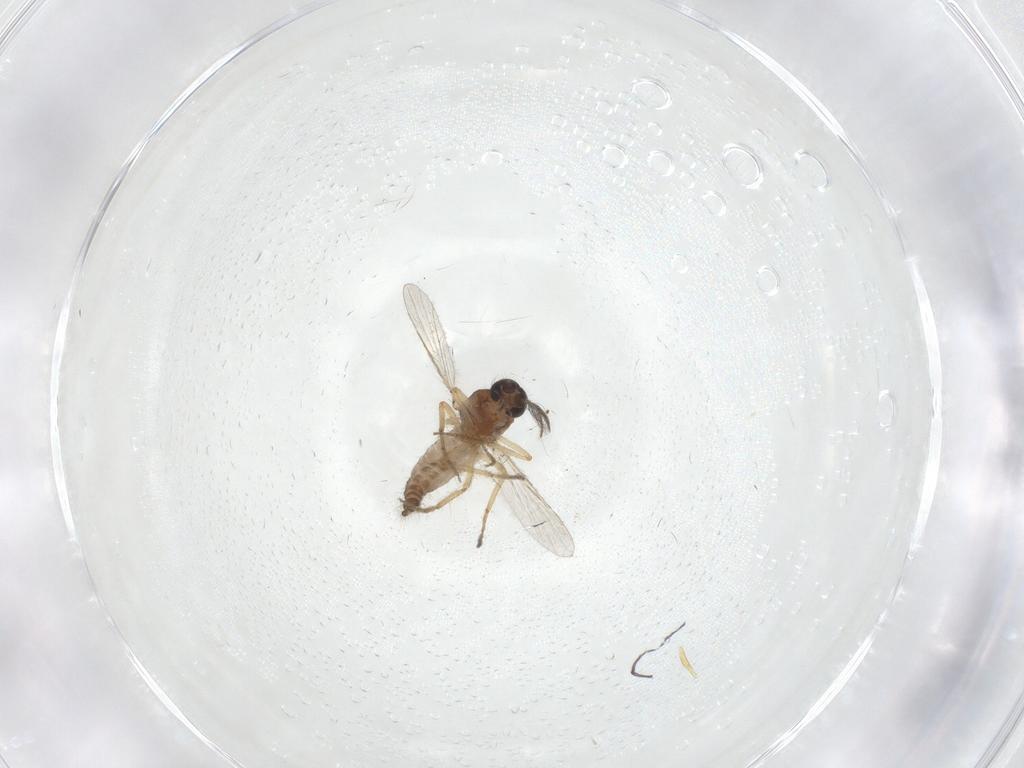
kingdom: Animalia
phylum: Arthropoda
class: Insecta
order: Diptera
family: Ceratopogonidae
